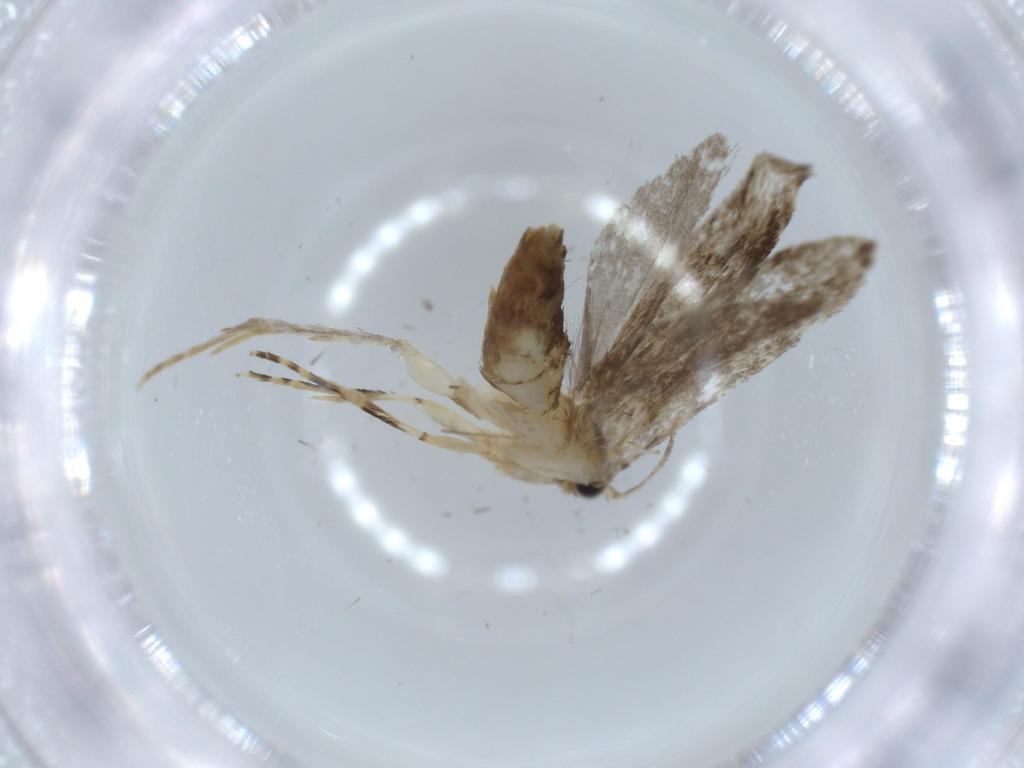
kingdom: Animalia
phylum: Arthropoda
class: Insecta
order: Lepidoptera
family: Tineidae
